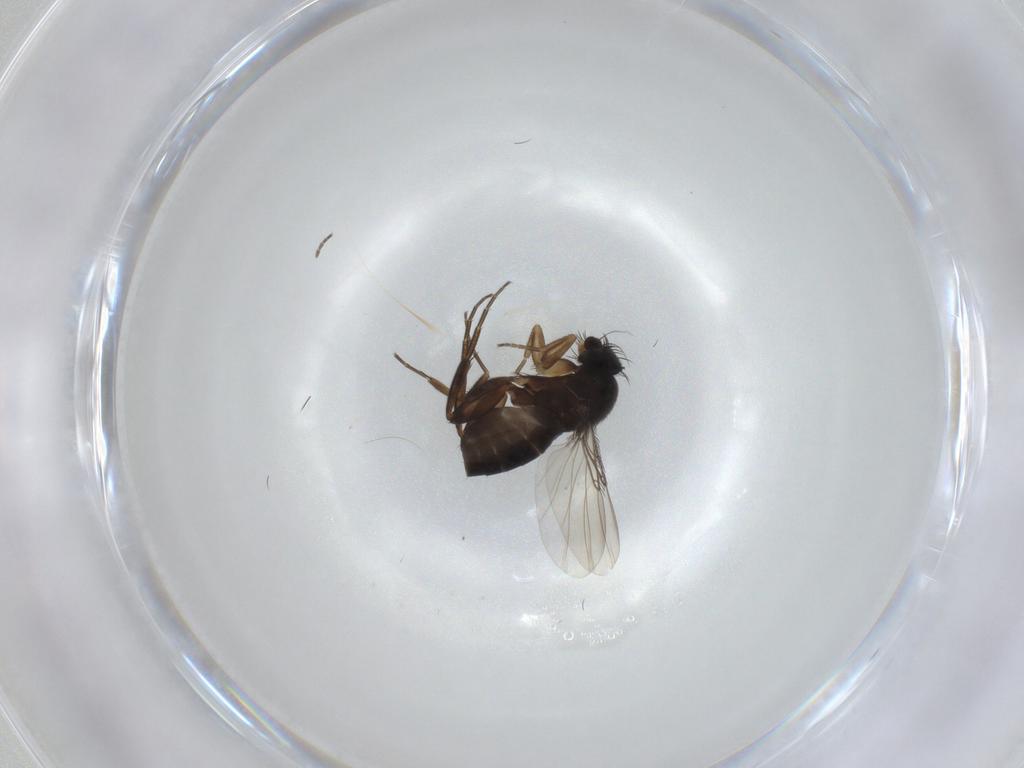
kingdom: Animalia
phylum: Arthropoda
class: Insecta
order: Diptera
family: Phoridae
